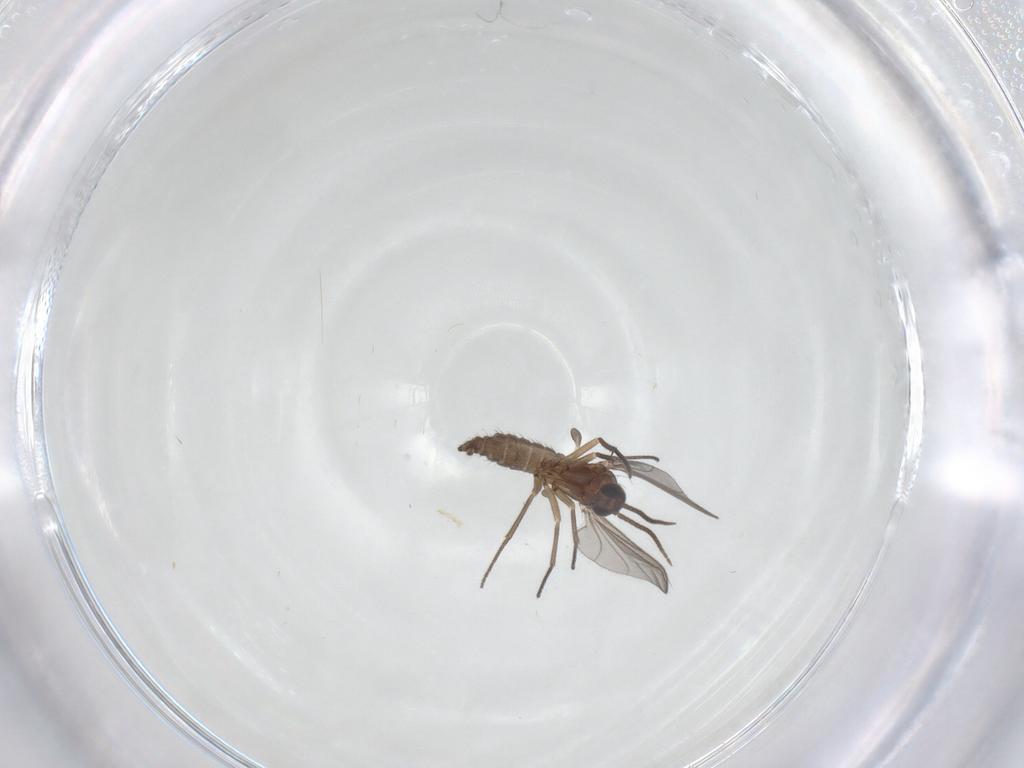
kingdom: Animalia
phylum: Arthropoda
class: Insecta
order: Diptera
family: Sciaridae
